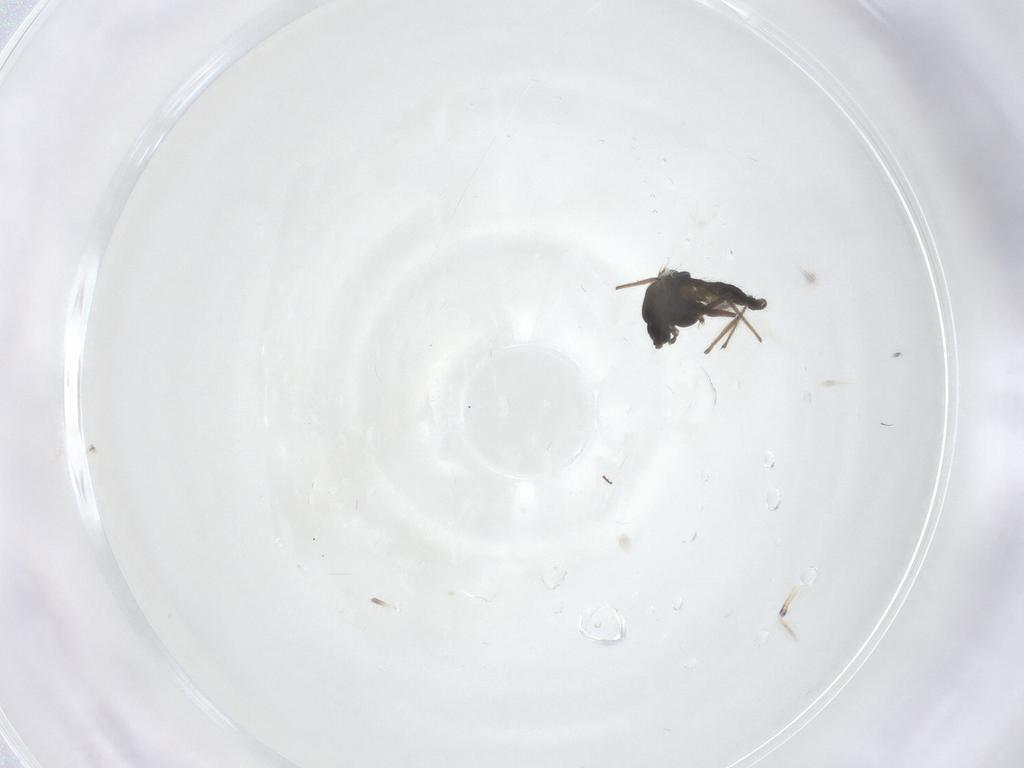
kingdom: Animalia
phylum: Arthropoda
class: Insecta
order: Diptera
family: Chironomidae
